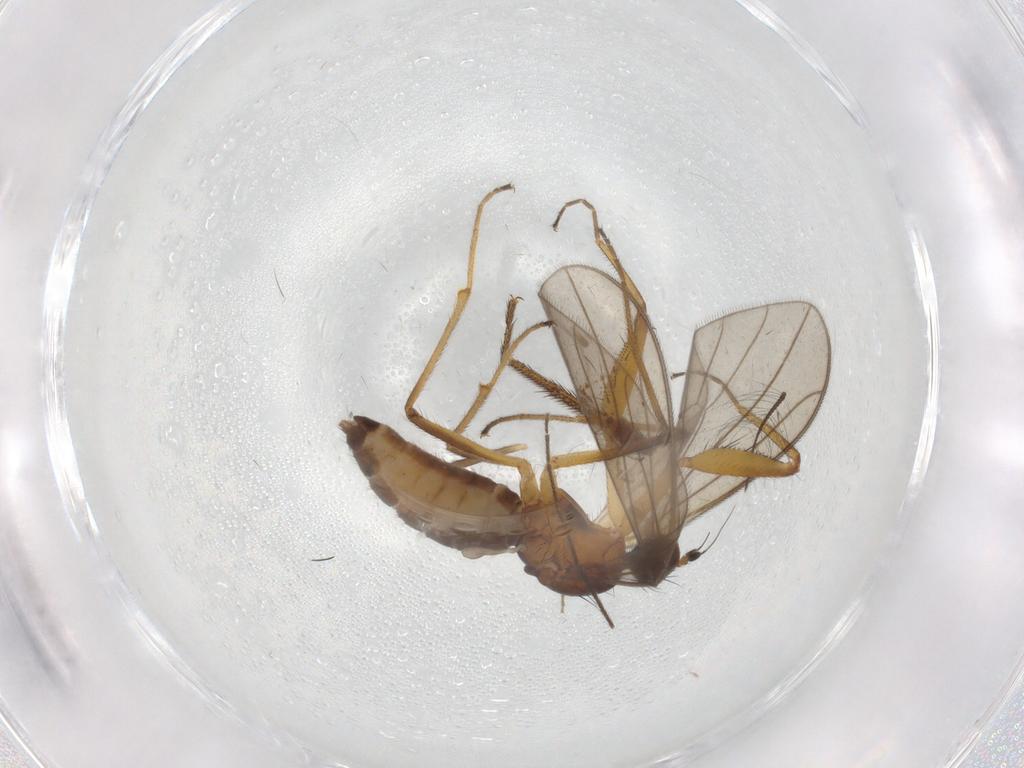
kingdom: Animalia
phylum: Arthropoda
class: Insecta
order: Diptera
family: Empididae
